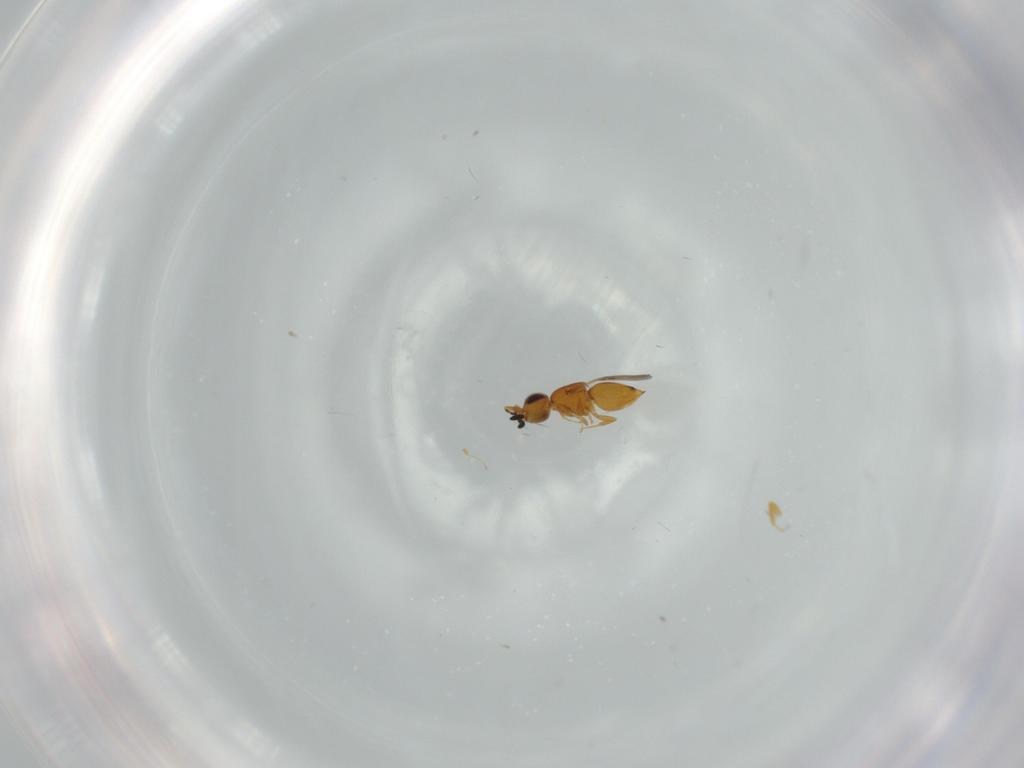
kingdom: Animalia
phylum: Arthropoda
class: Insecta
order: Hymenoptera
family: Ceraphronidae
